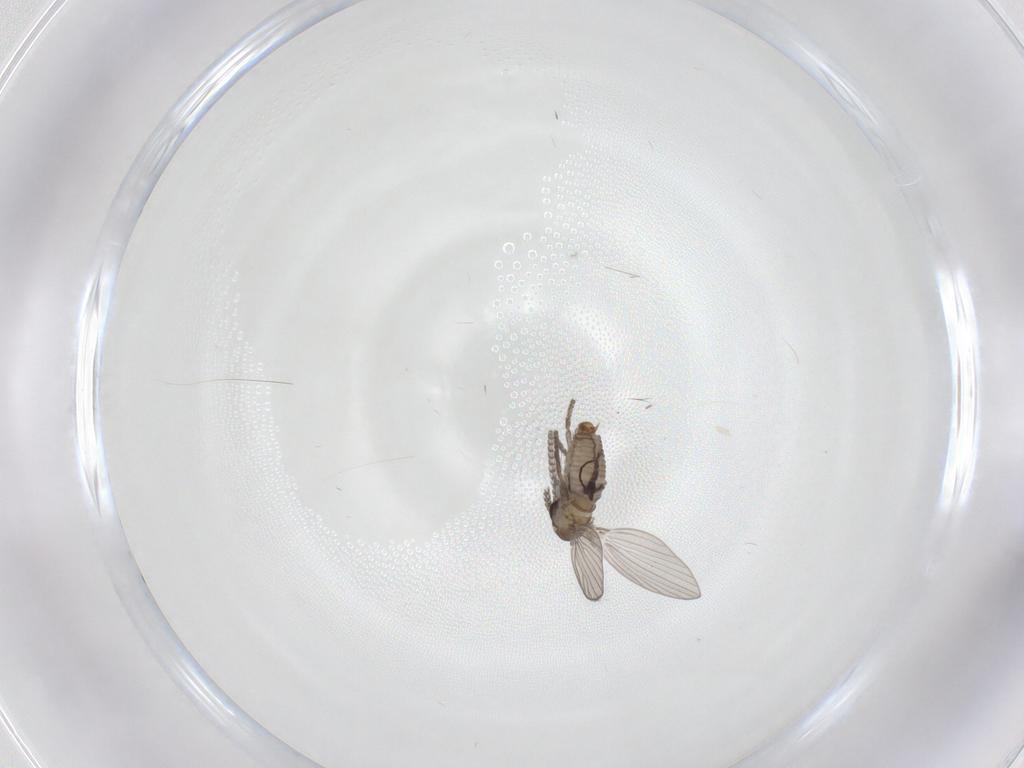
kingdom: Animalia
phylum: Arthropoda
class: Insecta
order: Diptera
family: Psychodidae
